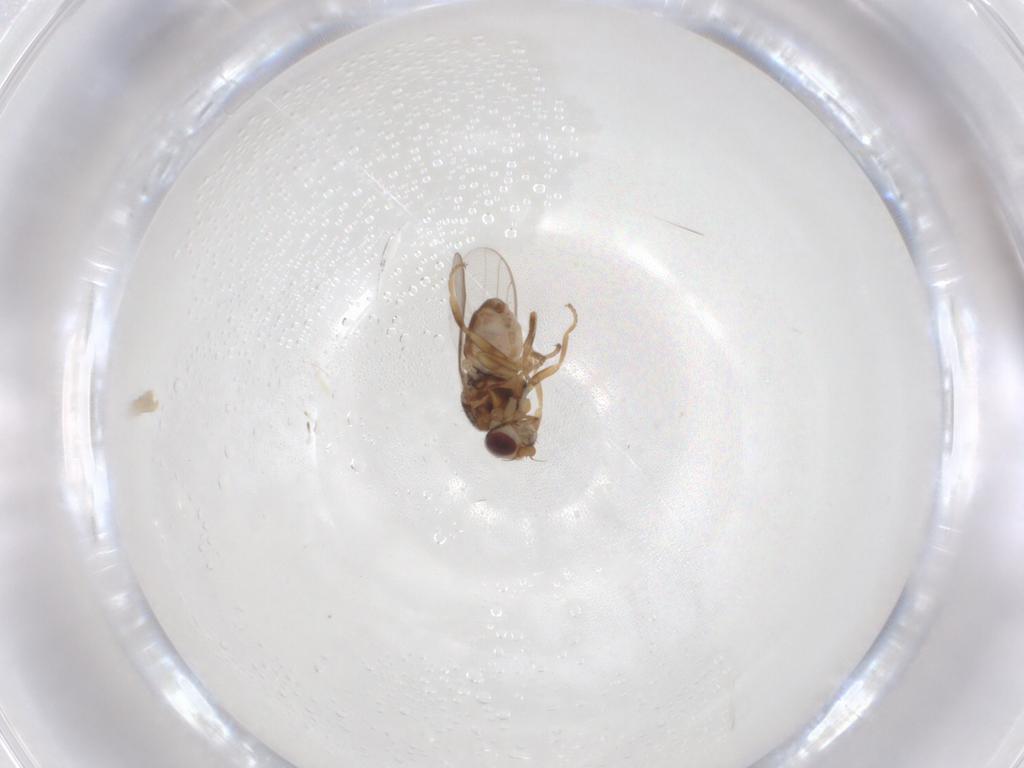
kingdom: Animalia
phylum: Arthropoda
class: Insecta
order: Diptera
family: Chloropidae
